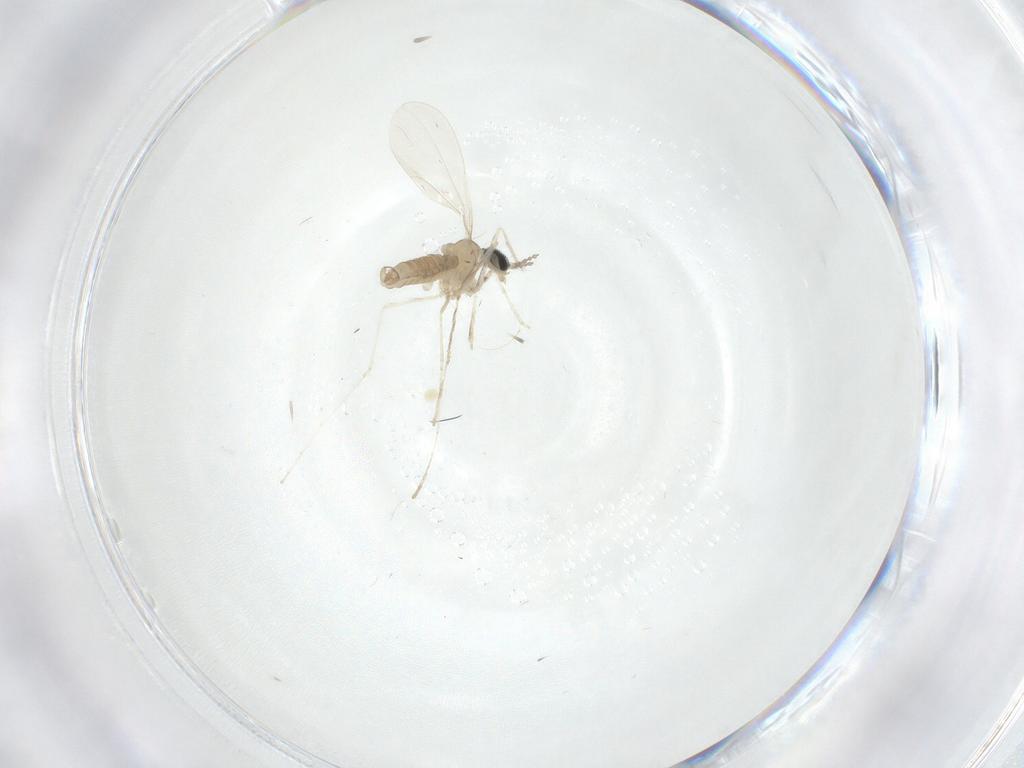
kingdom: Animalia
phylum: Arthropoda
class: Insecta
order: Diptera
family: Cecidomyiidae
